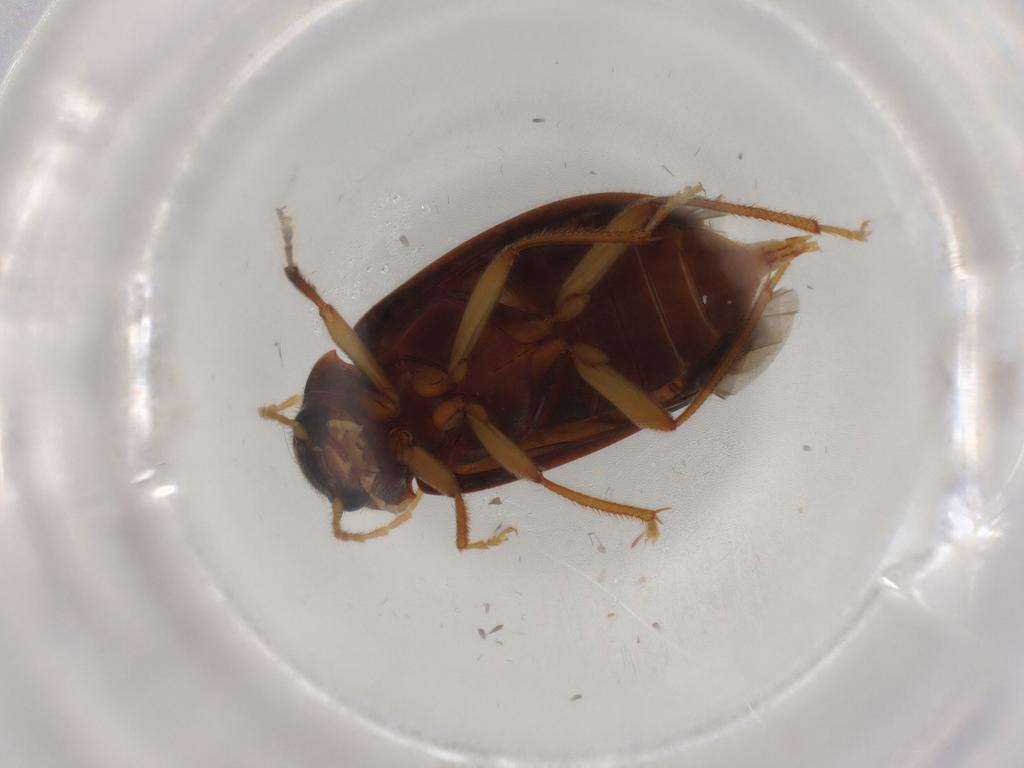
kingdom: Animalia
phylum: Arthropoda
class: Insecta
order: Coleoptera
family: Ptilodactylidae
